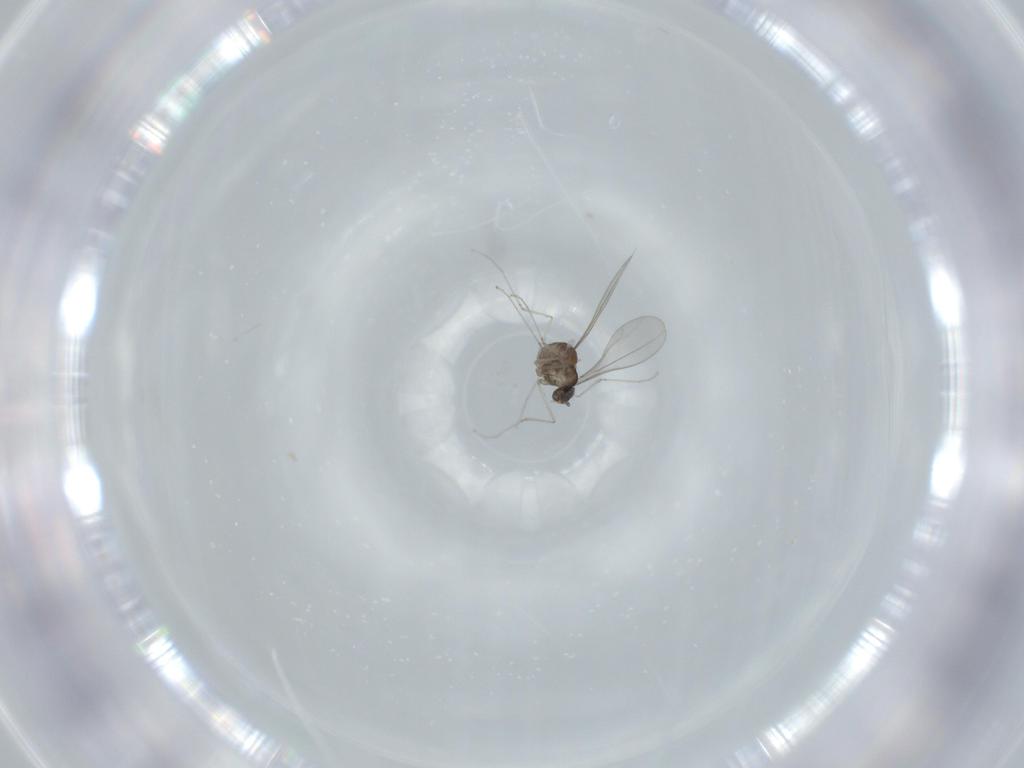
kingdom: Animalia
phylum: Arthropoda
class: Insecta
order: Diptera
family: Cecidomyiidae
